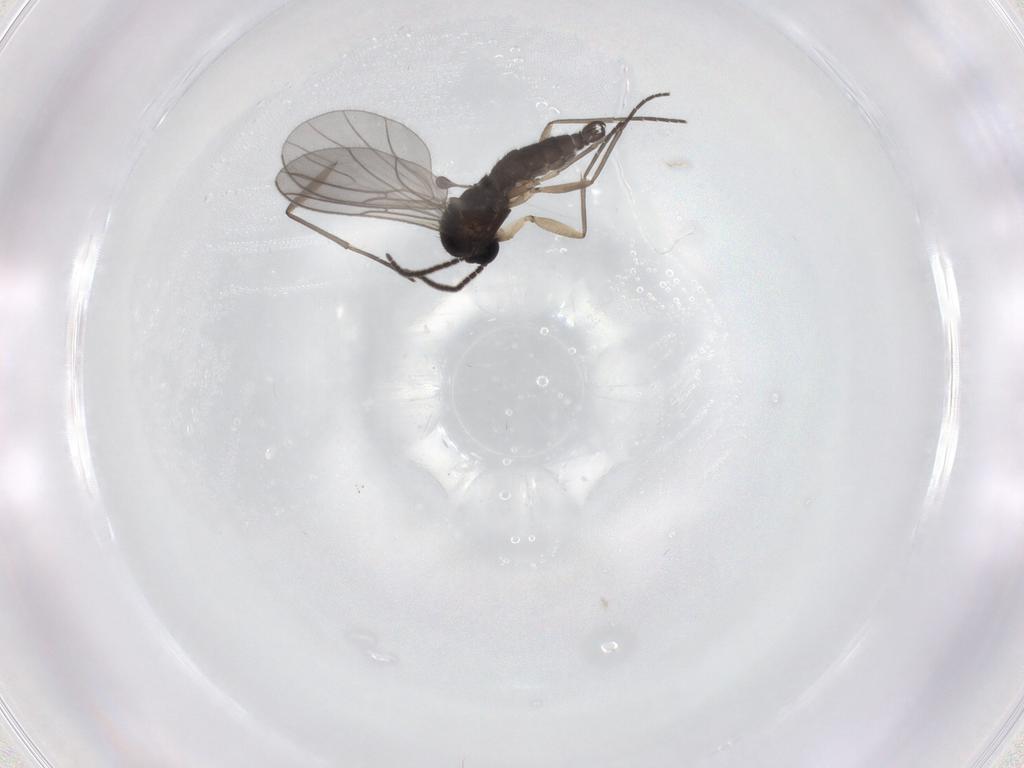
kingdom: Animalia
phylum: Arthropoda
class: Insecta
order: Diptera
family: Sciaridae
